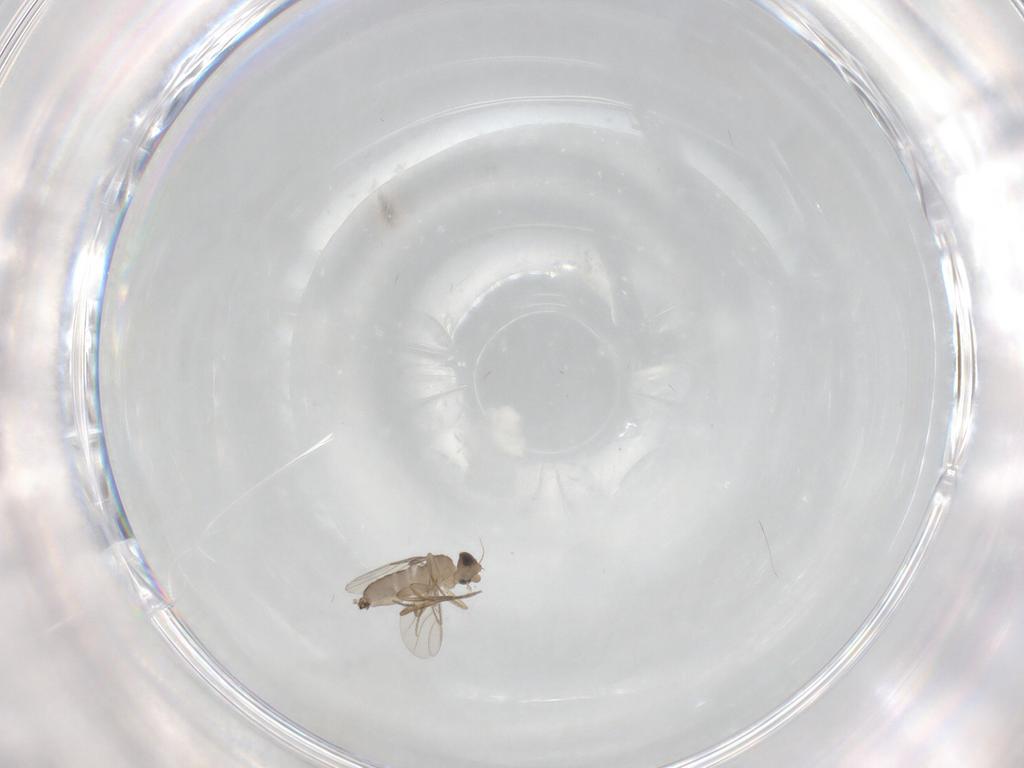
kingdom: Animalia
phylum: Arthropoda
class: Insecta
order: Diptera
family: Phoridae
